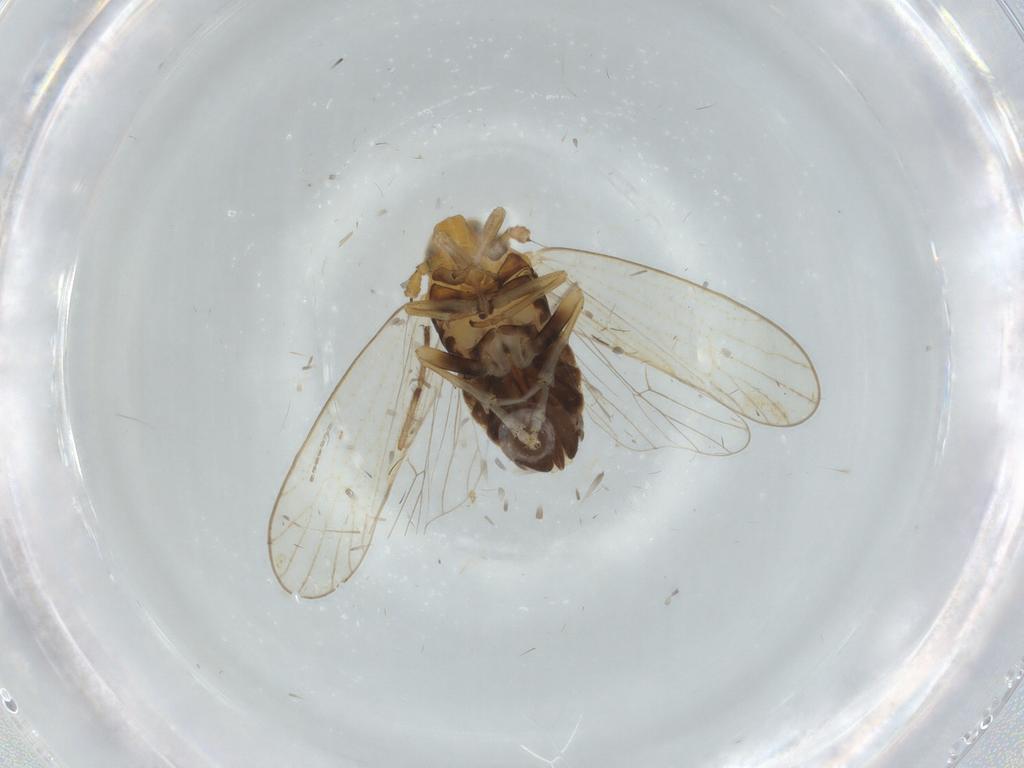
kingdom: Animalia
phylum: Arthropoda
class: Insecta
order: Hemiptera
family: Delphacidae
